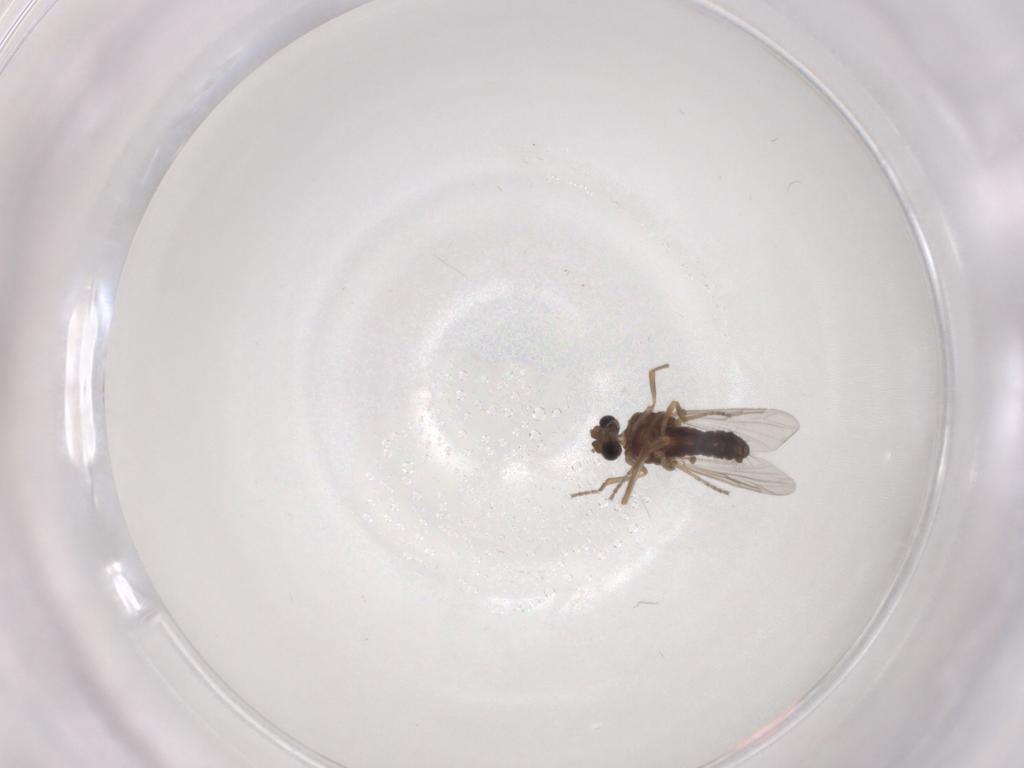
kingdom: Animalia
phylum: Arthropoda
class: Insecta
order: Diptera
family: Ceratopogonidae
